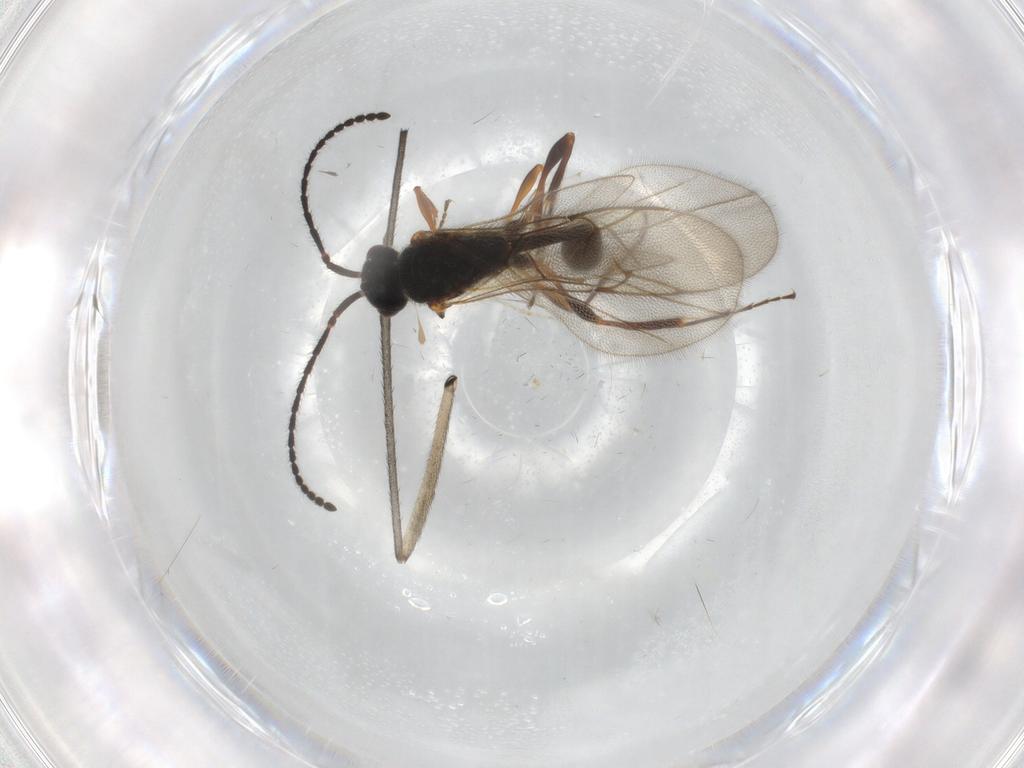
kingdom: Animalia
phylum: Arthropoda
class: Insecta
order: Hymenoptera
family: Diapriidae
